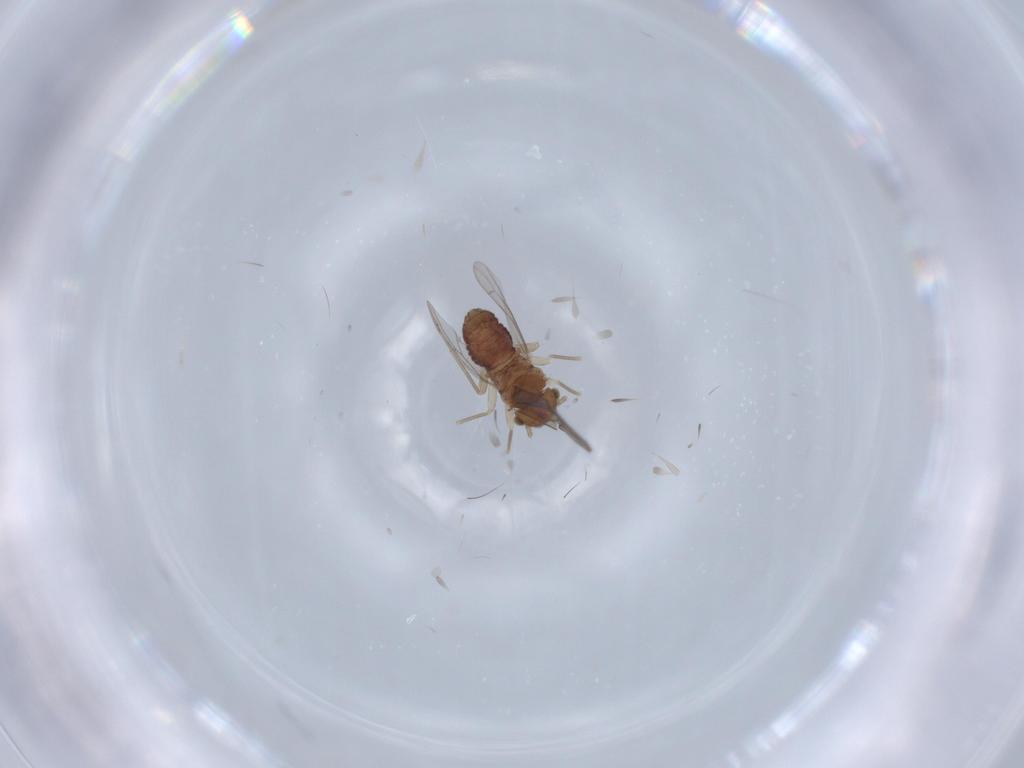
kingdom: Animalia
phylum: Arthropoda
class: Insecta
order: Psocodea
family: Ectopsocidae
